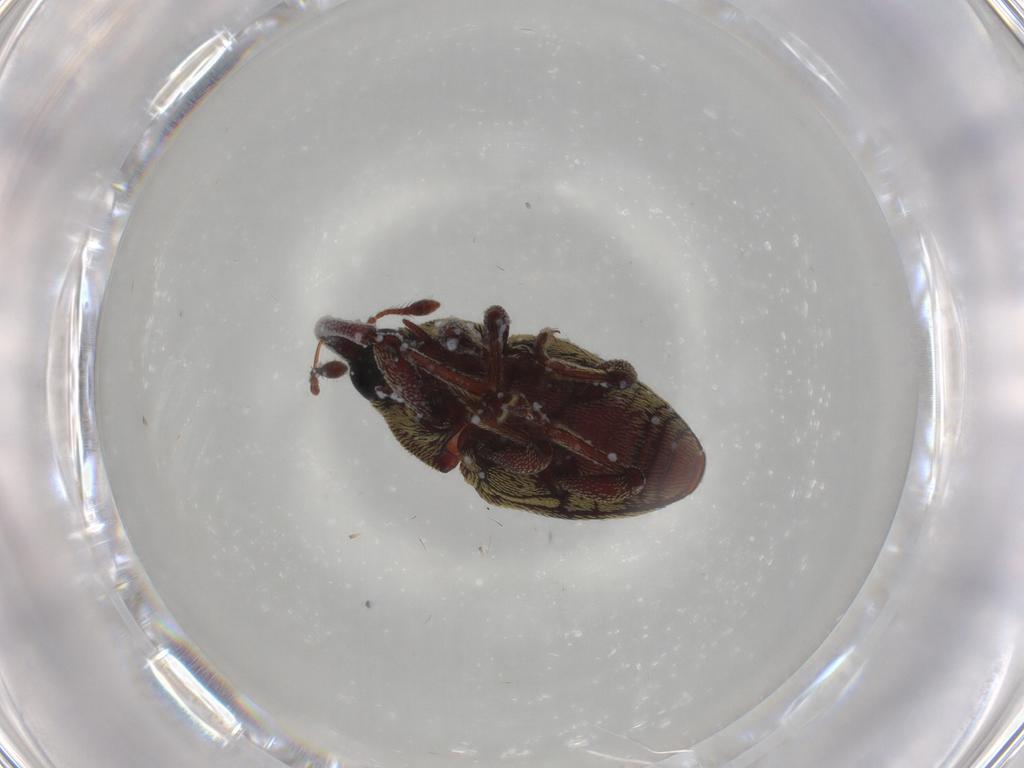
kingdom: Animalia
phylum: Arthropoda
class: Insecta
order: Coleoptera
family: Curculionidae
